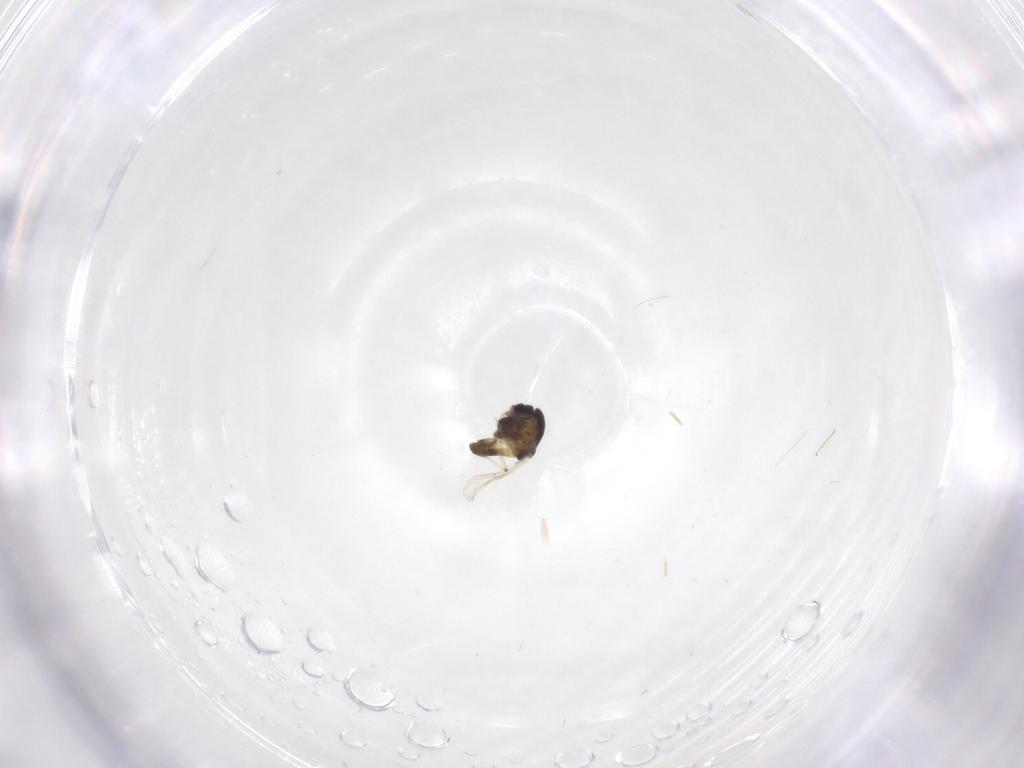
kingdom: Animalia
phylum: Arthropoda
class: Insecta
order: Diptera
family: Chironomidae
